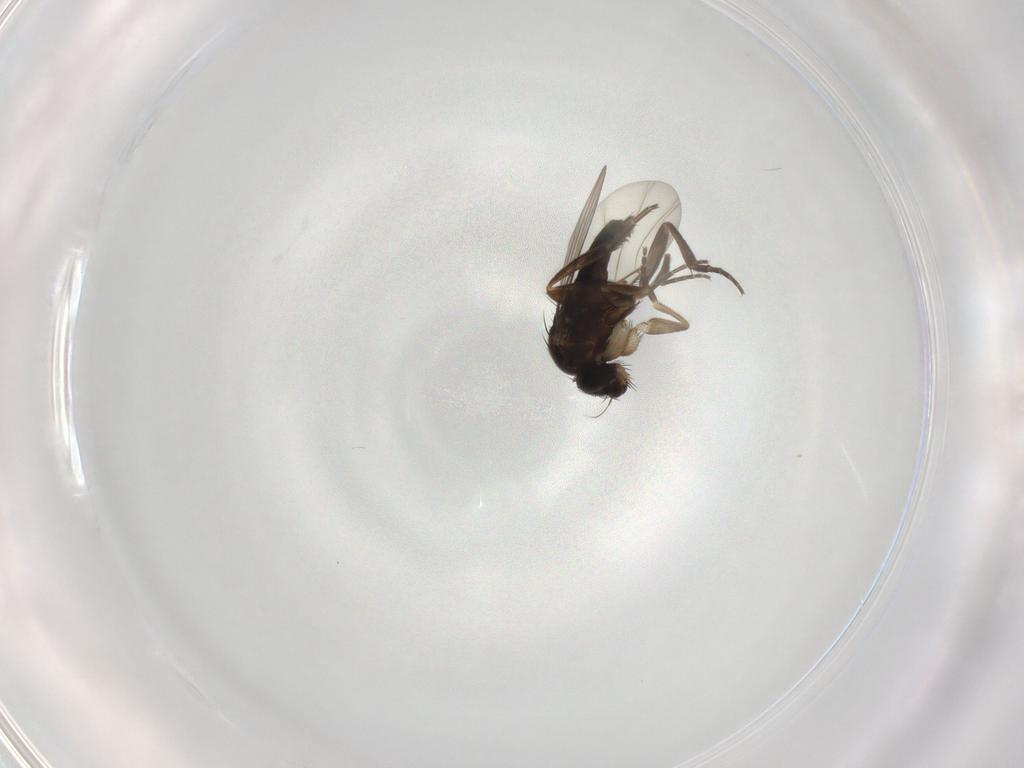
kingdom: Animalia
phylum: Arthropoda
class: Insecta
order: Diptera
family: Phoridae
